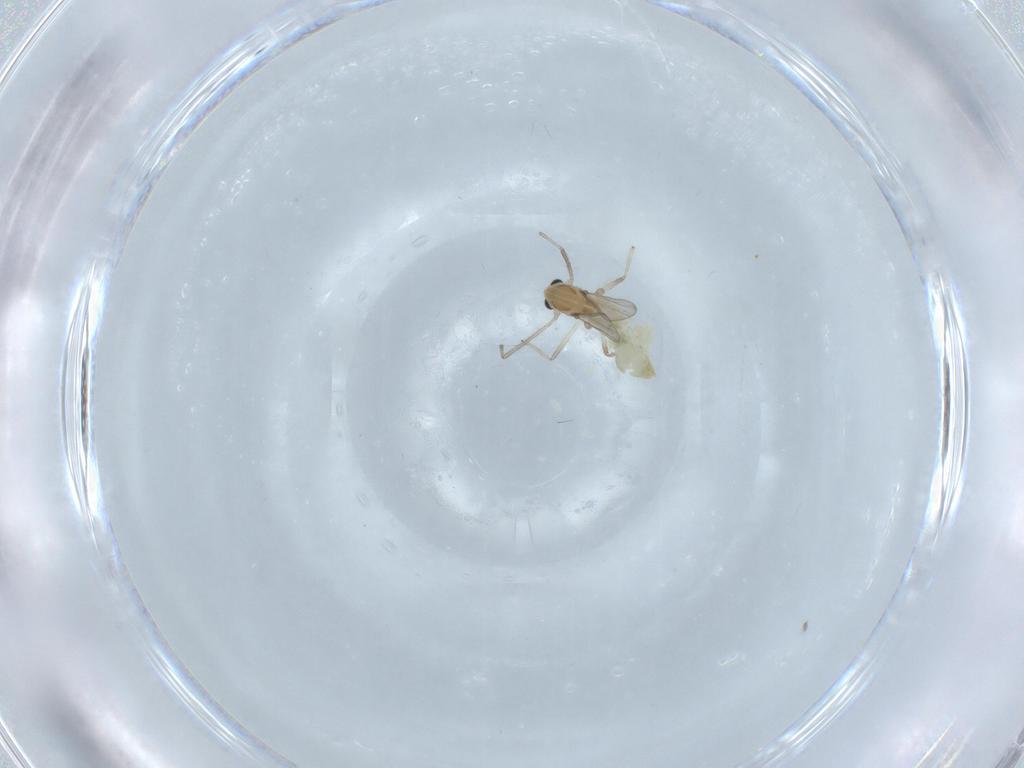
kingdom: Animalia
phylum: Arthropoda
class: Insecta
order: Diptera
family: Chironomidae
